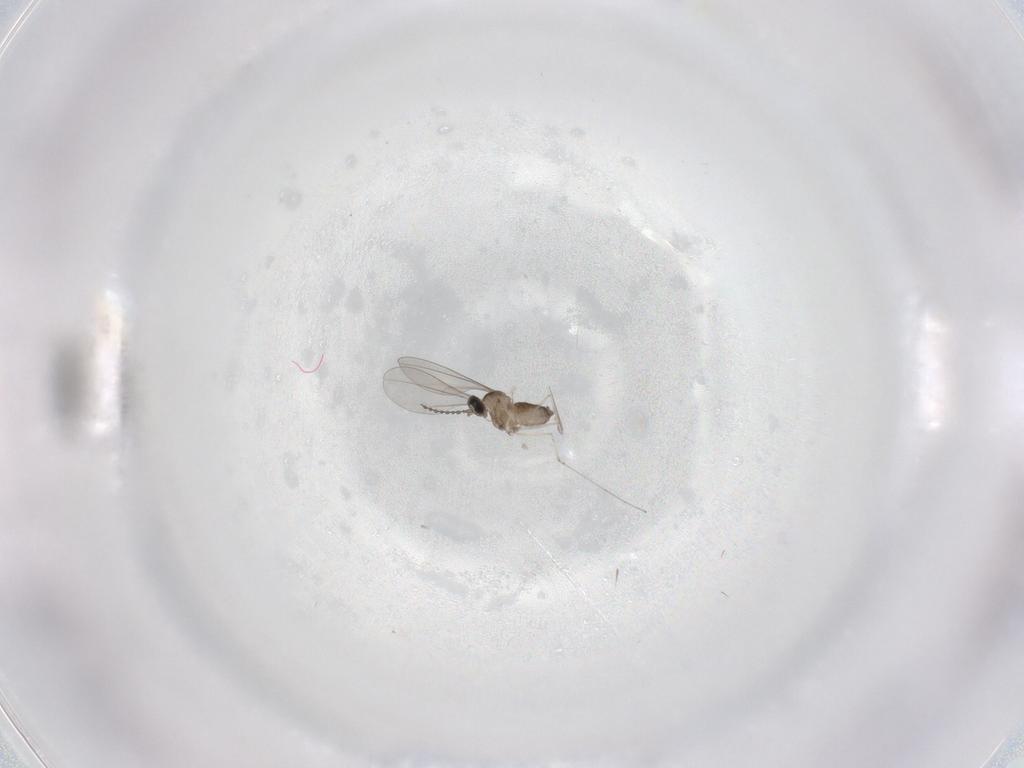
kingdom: Animalia
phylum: Arthropoda
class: Insecta
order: Diptera
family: Cecidomyiidae
